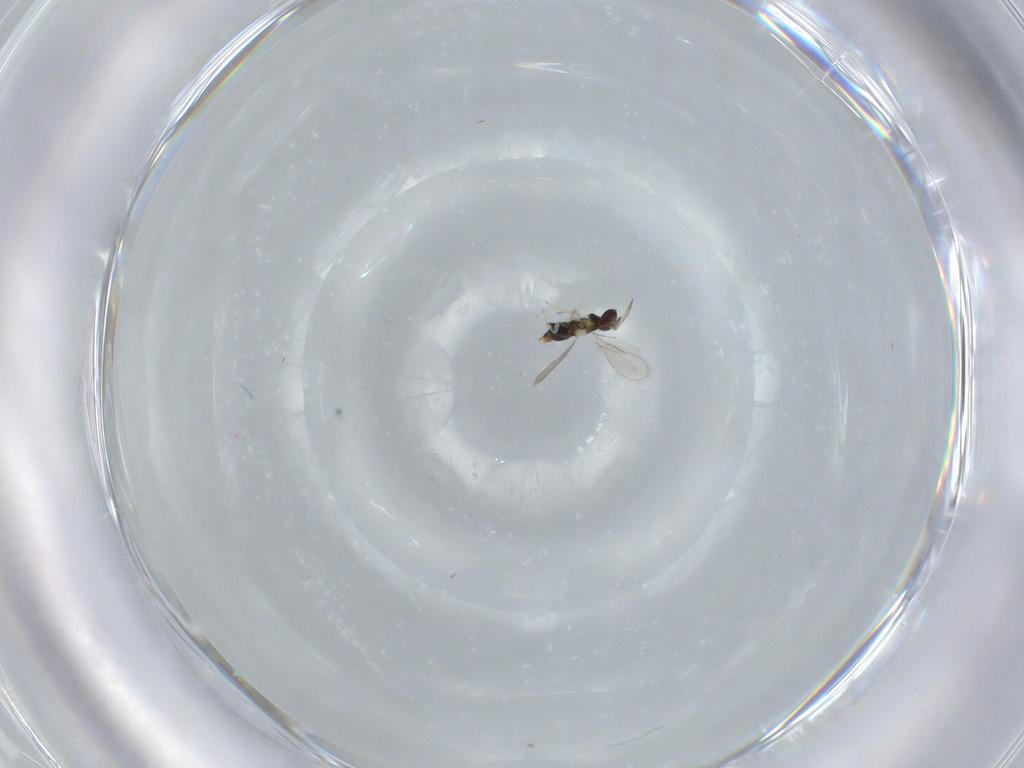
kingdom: Animalia
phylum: Arthropoda
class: Insecta
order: Hymenoptera
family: Aphelinidae
